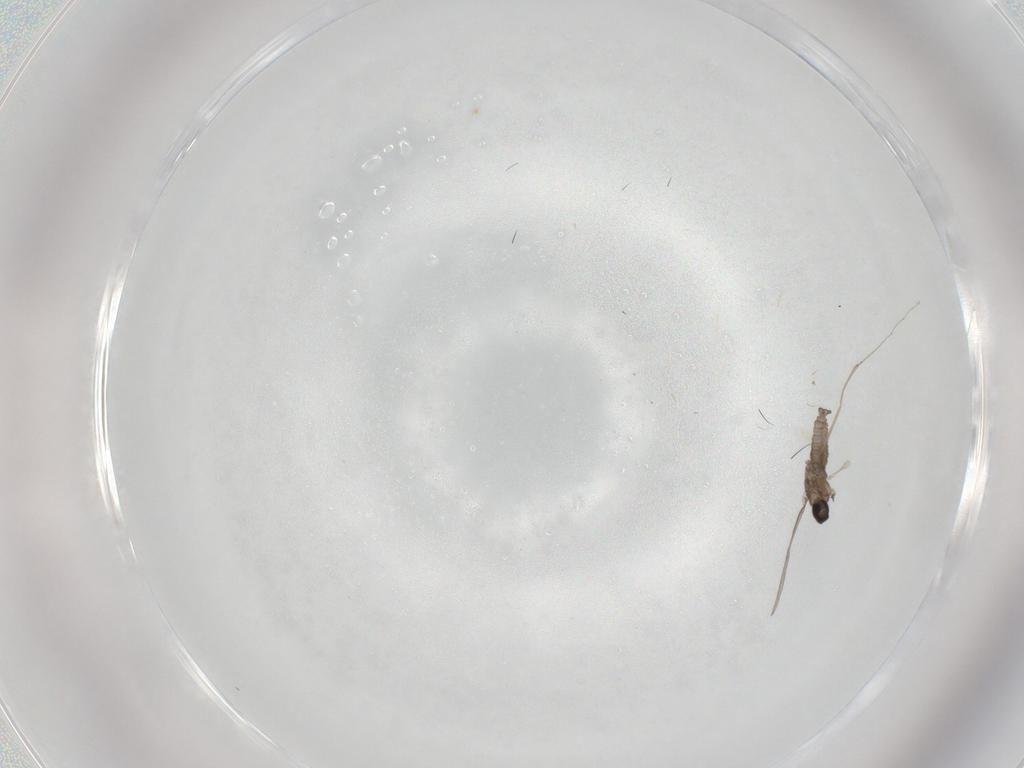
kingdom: Animalia
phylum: Arthropoda
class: Insecta
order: Diptera
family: Cecidomyiidae
